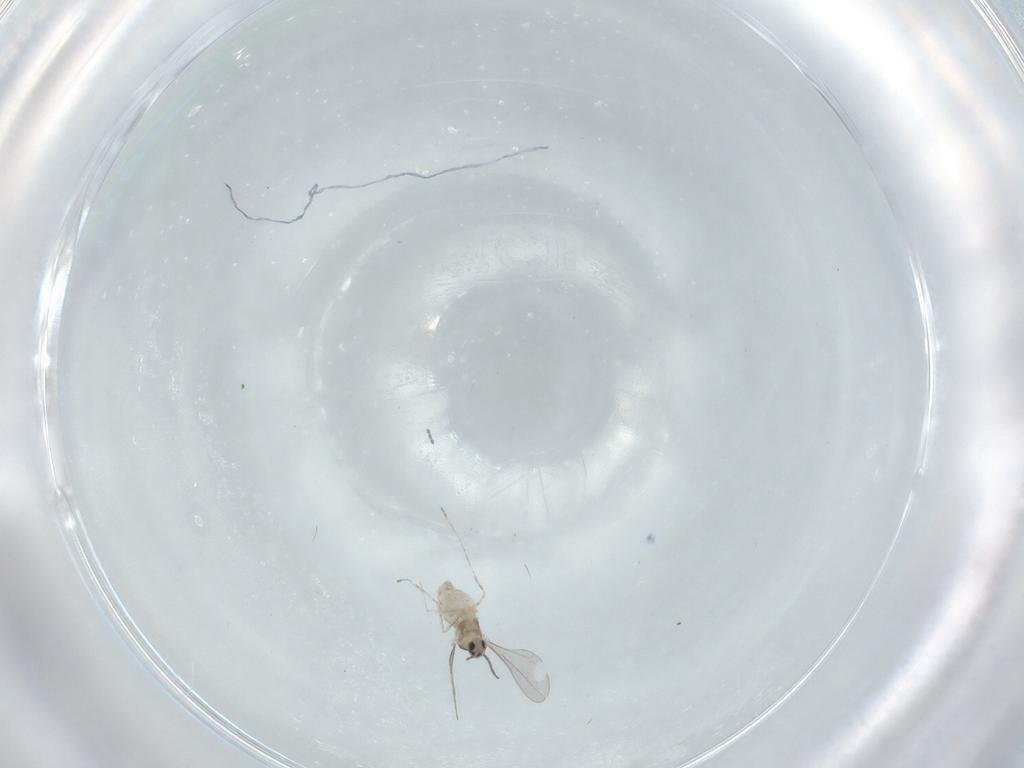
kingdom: Animalia
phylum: Arthropoda
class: Insecta
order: Diptera
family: Cecidomyiidae
